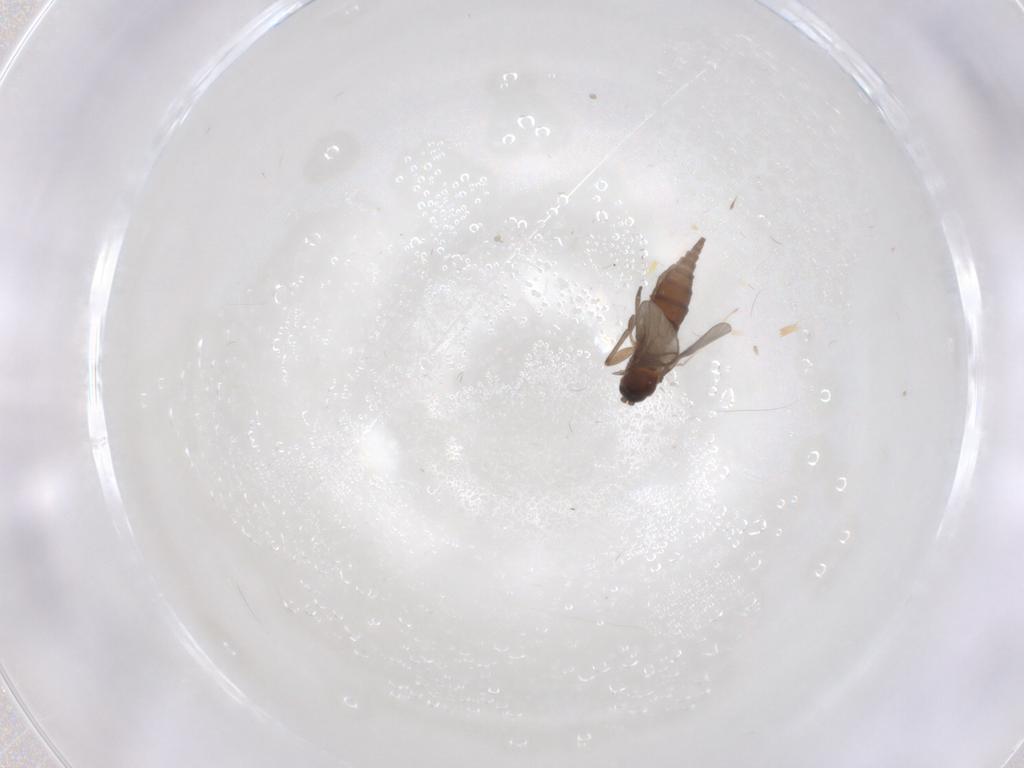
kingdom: Animalia
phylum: Arthropoda
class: Insecta
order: Diptera
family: Chironomidae
